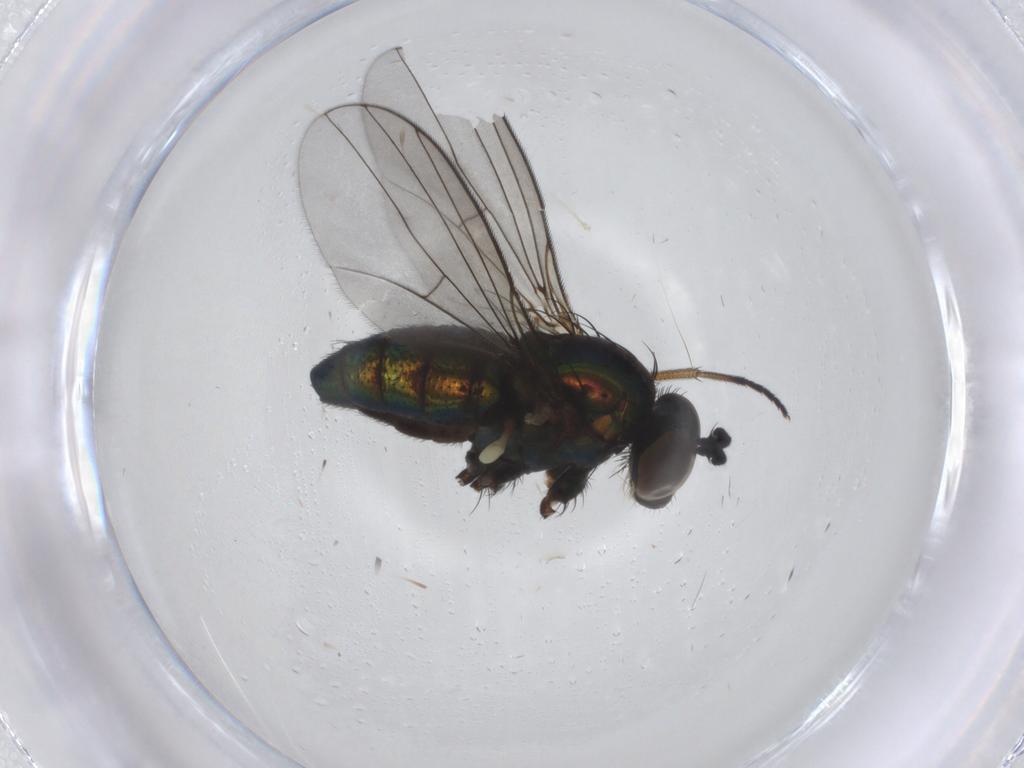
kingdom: Animalia
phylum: Arthropoda
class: Insecta
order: Diptera
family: Dolichopodidae
